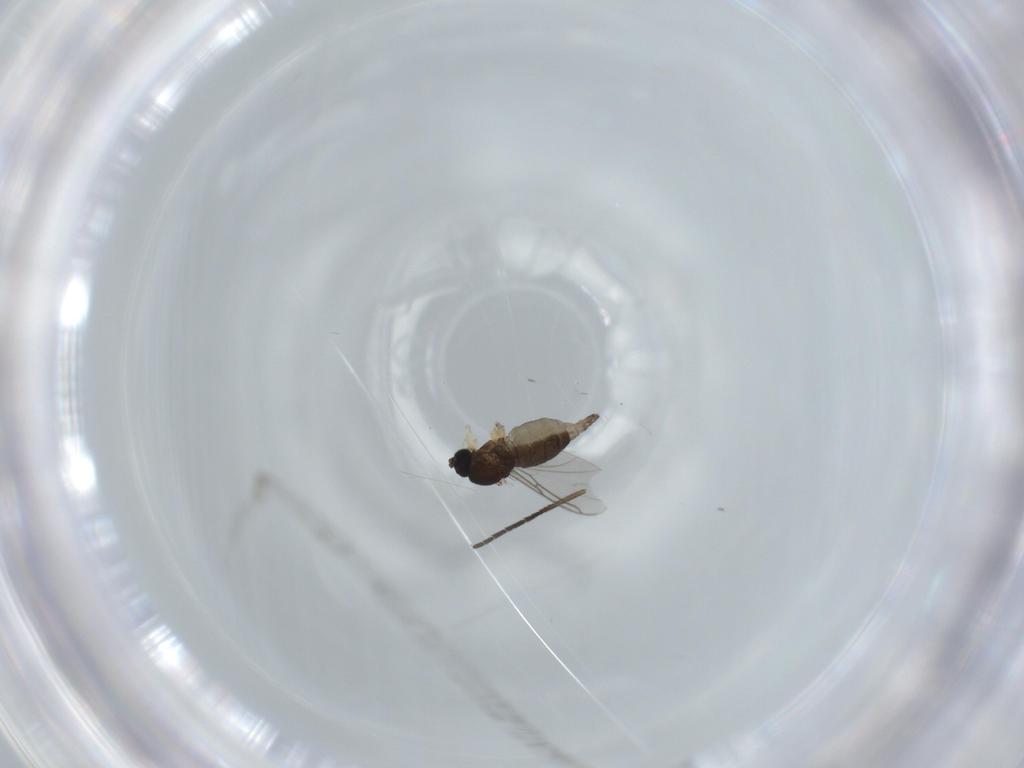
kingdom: Animalia
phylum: Arthropoda
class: Insecta
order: Diptera
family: Sciaridae
